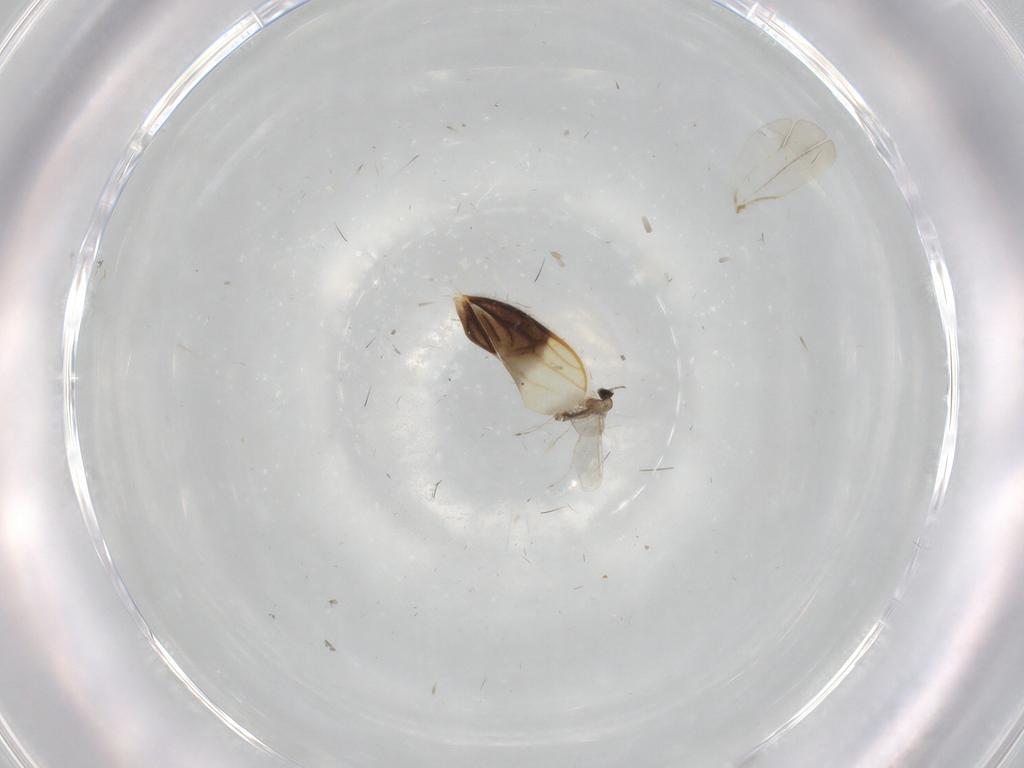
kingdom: Animalia
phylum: Arthropoda
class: Insecta
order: Diptera
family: Cecidomyiidae
